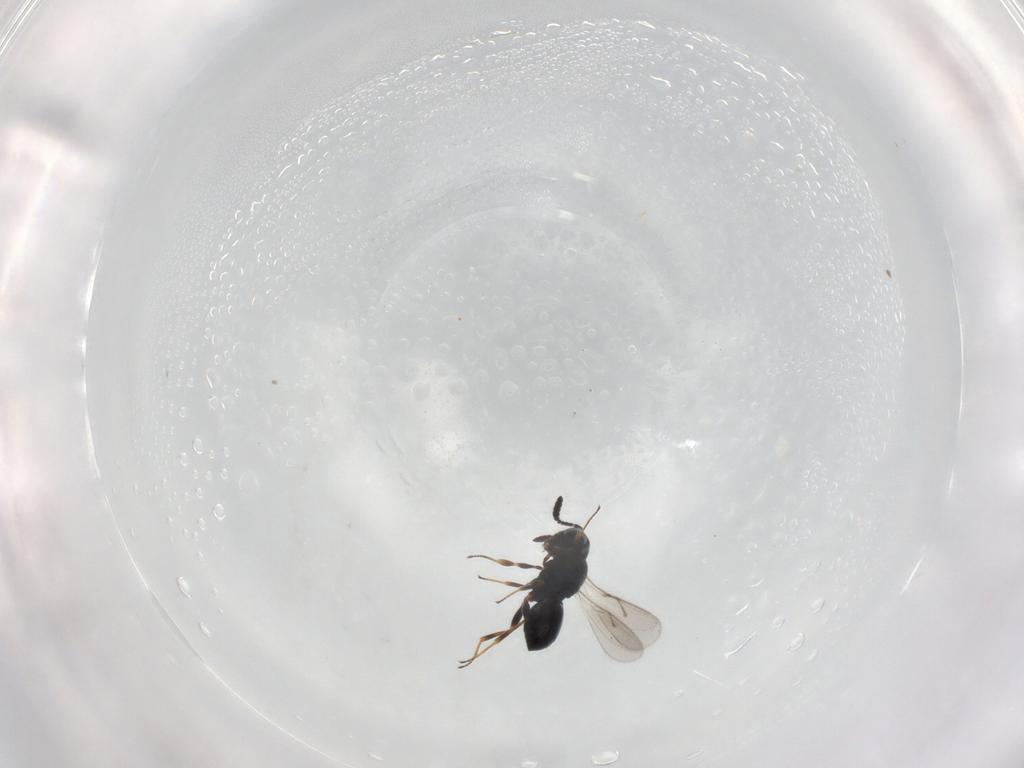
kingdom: Animalia
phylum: Arthropoda
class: Insecta
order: Hymenoptera
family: Scelionidae
